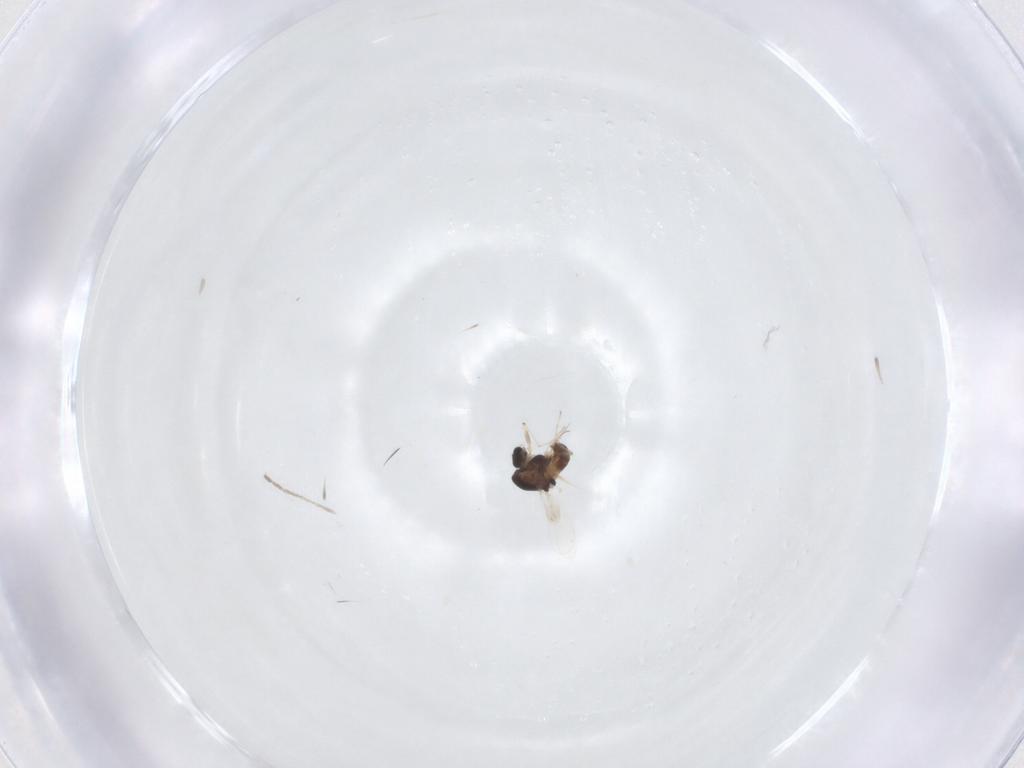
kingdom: Animalia
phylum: Arthropoda
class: Insecta
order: Diptera
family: Chironomidae
